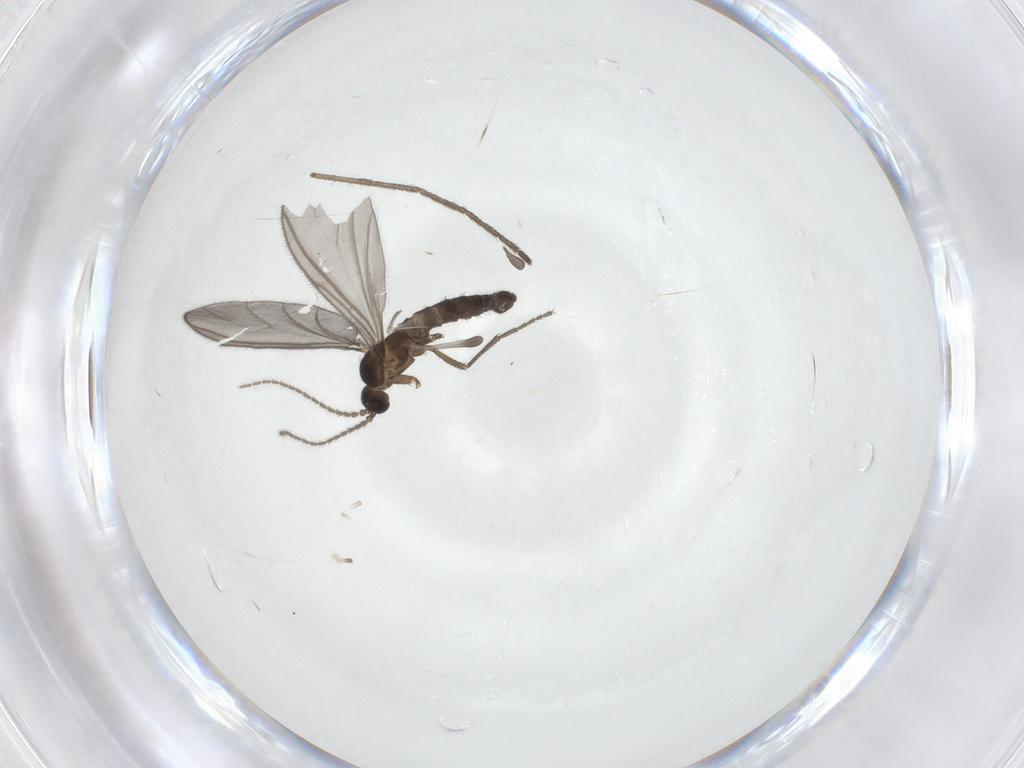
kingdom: Animalia
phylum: Arthropoda
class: Insecta
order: Diptera
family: Cecidomyiidae
